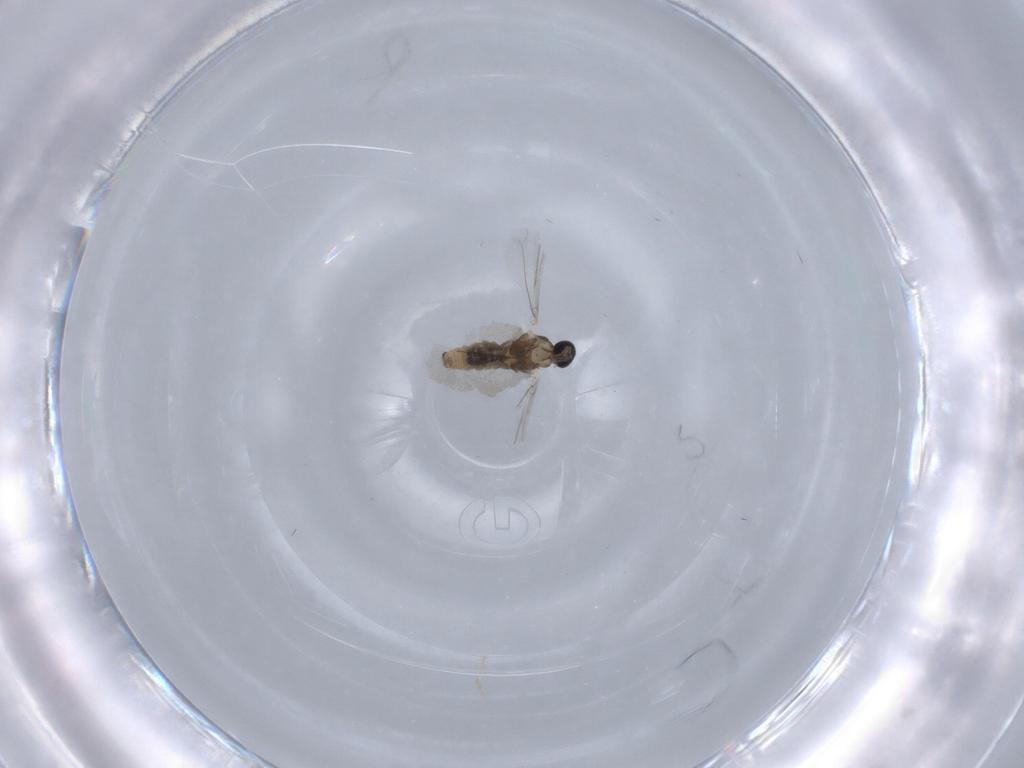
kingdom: Animalia
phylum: Arthropoda
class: Insecta
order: Diptera
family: Cecidomyiidae
